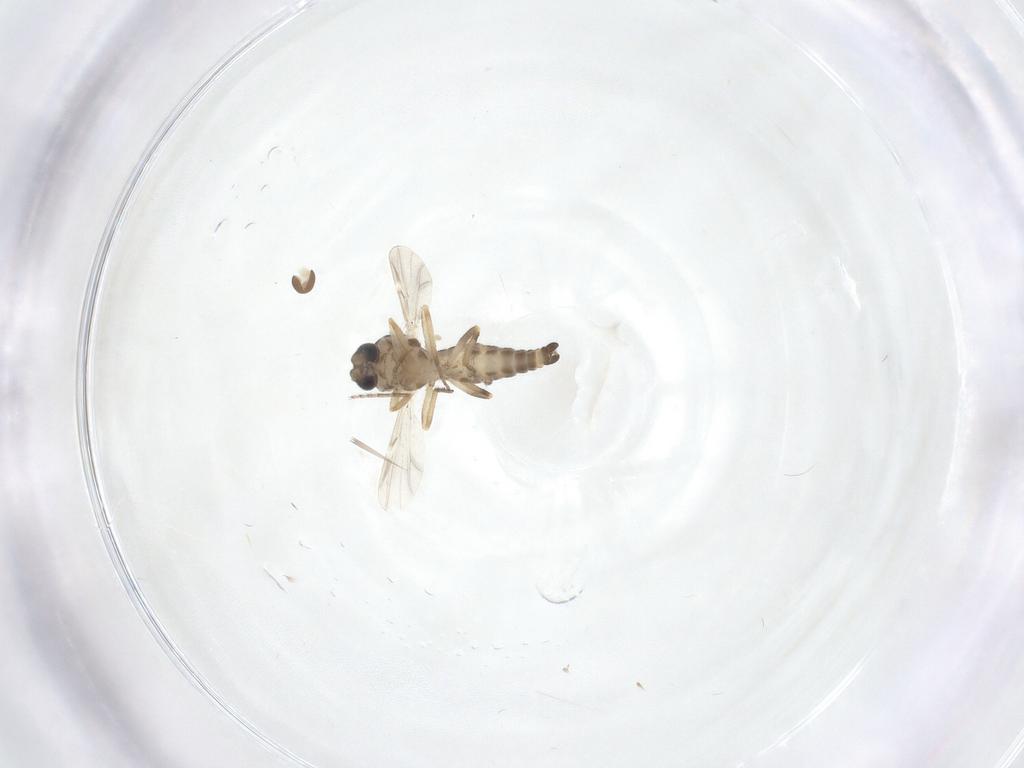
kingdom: Animalia
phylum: Arthropoda
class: Insecta
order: Diptera
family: Ceratopogonidae
